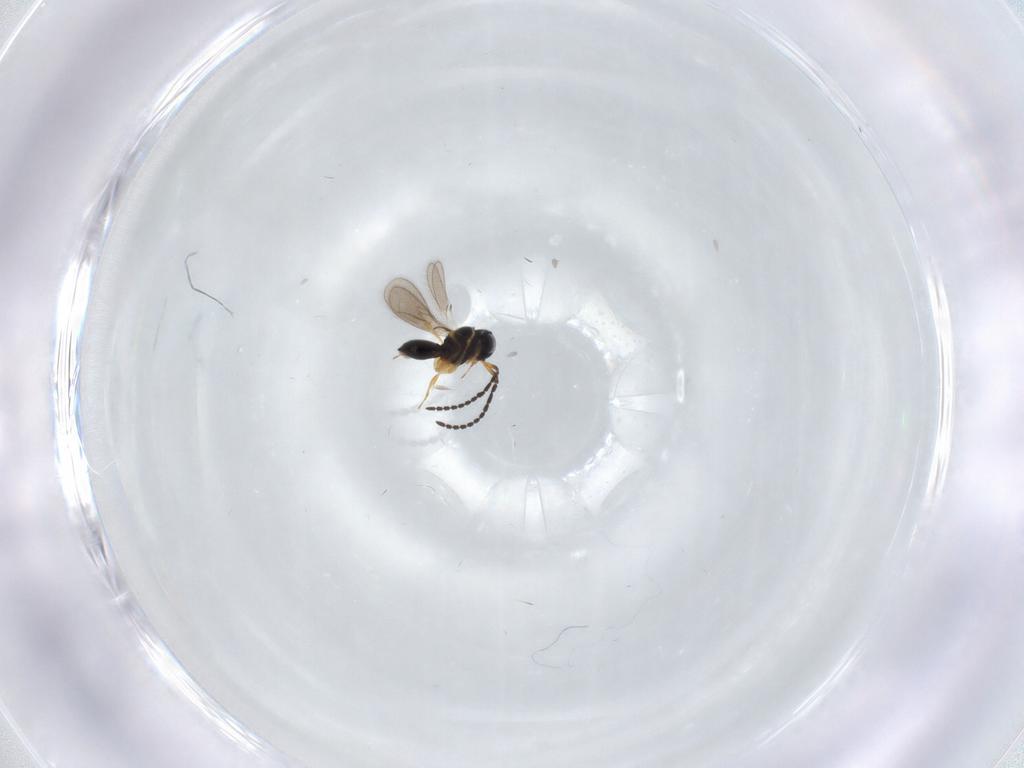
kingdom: Animalia
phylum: Arthropoda
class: Insecta
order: Hymenoptera
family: Scelionidae
